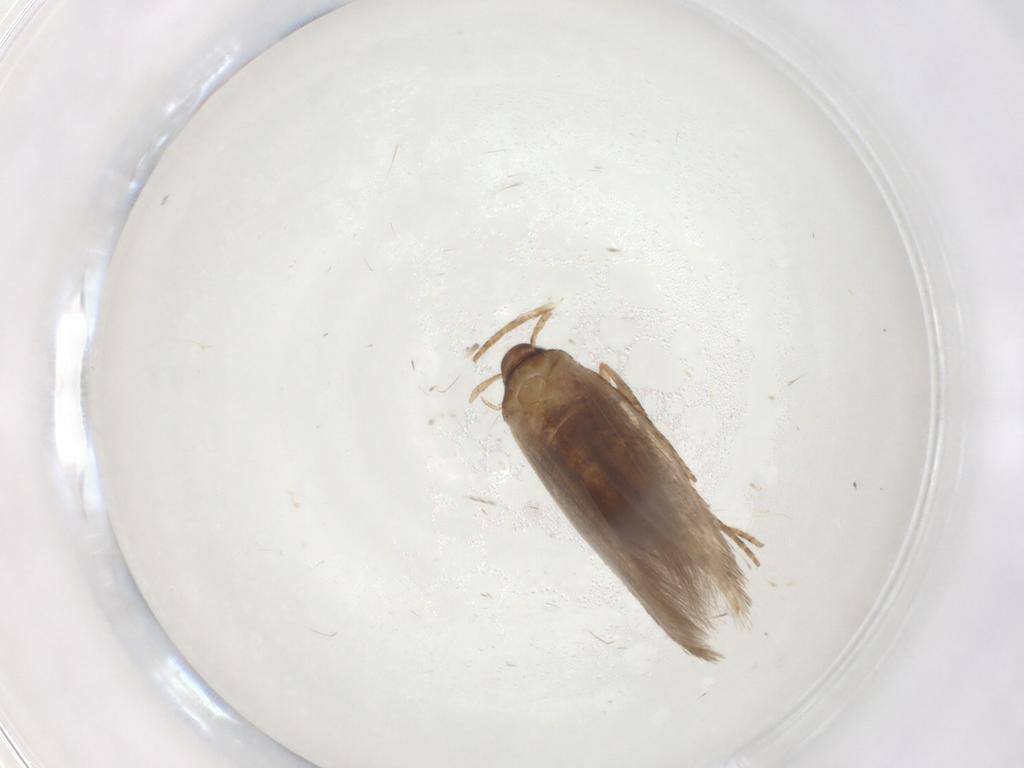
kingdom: Animalia
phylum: Arthropoda
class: Insecta
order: Lepidoptera
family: Cosmopterigidae
